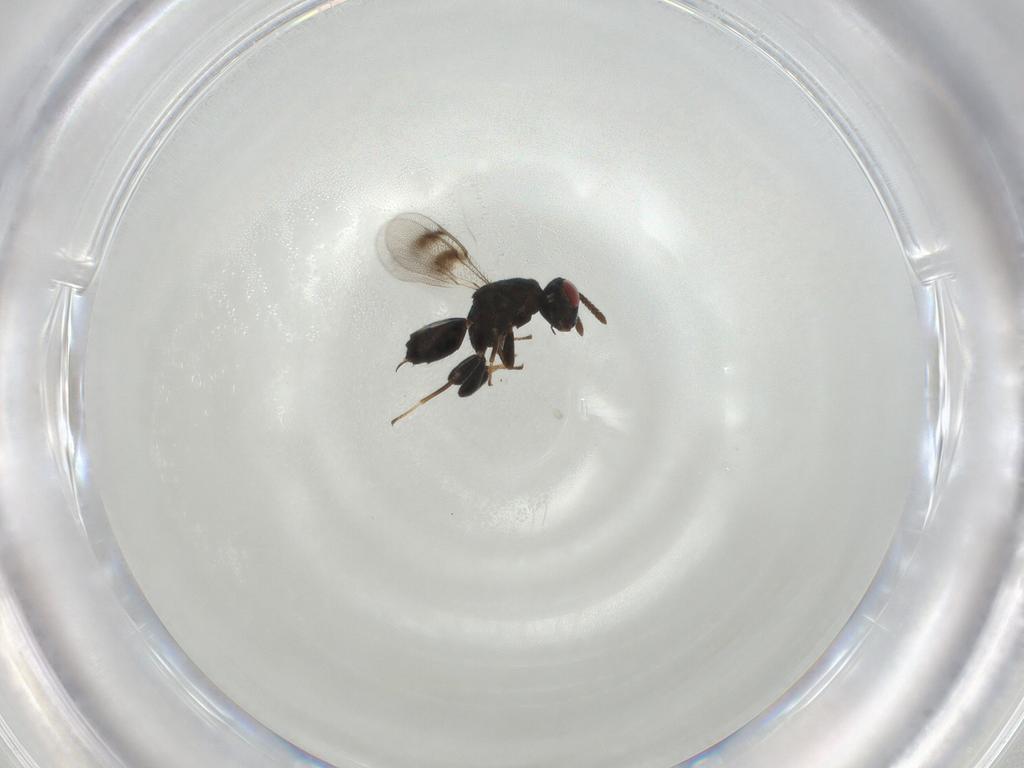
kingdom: Animalia
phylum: Arthropoda
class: Insecta
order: Hymenoptera
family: Torymidae
